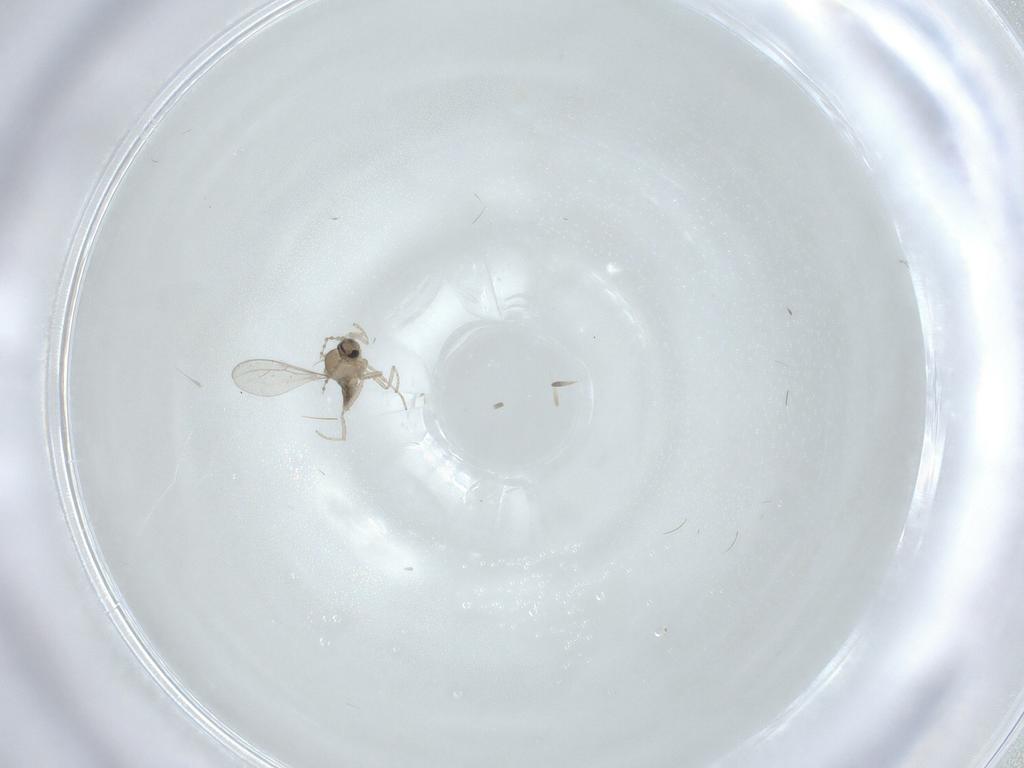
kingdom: Animalia
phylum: Arthropoda
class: Insecta
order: Diptera
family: Cecidomyiidae
